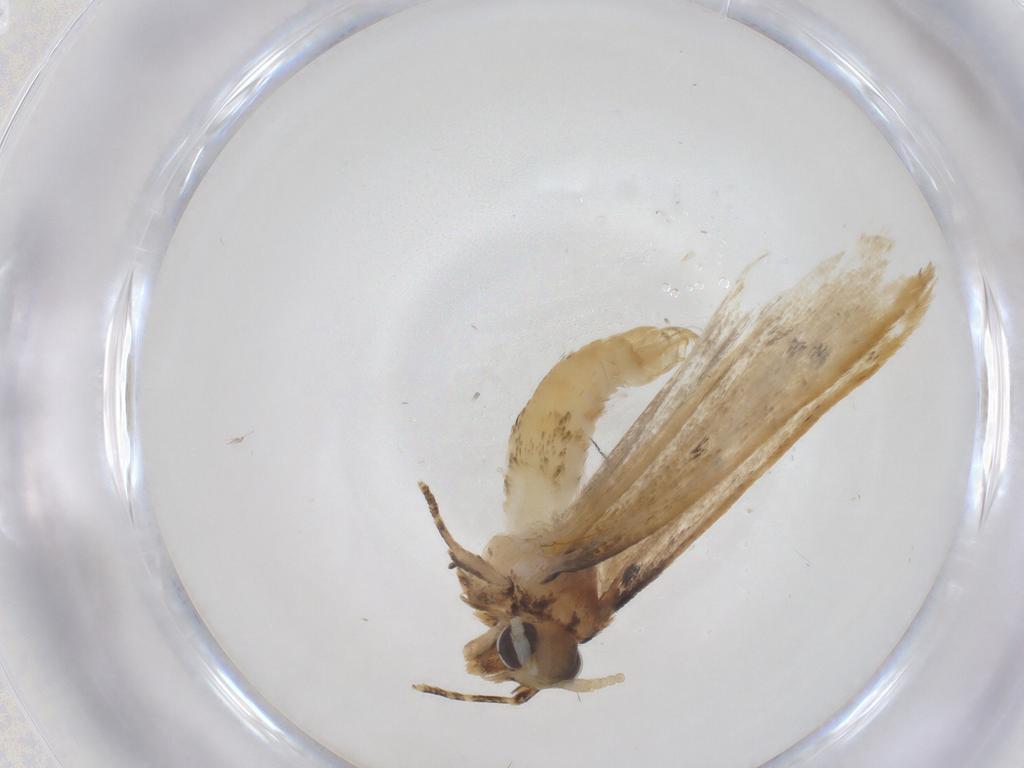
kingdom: Animalia
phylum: Arthropoda
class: Insecta
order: Lepidoptera
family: Lecithoceridae
